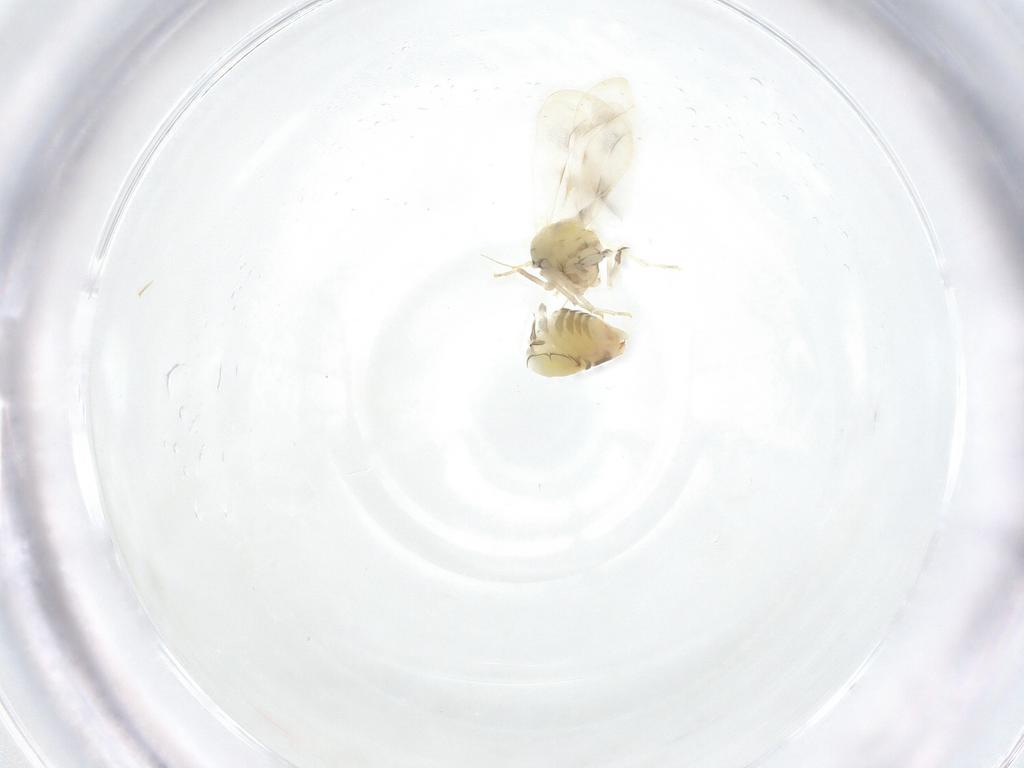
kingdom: Animalia
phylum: Arthropoda
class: Insecta
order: Hemiptera
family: Aleyrodidae
